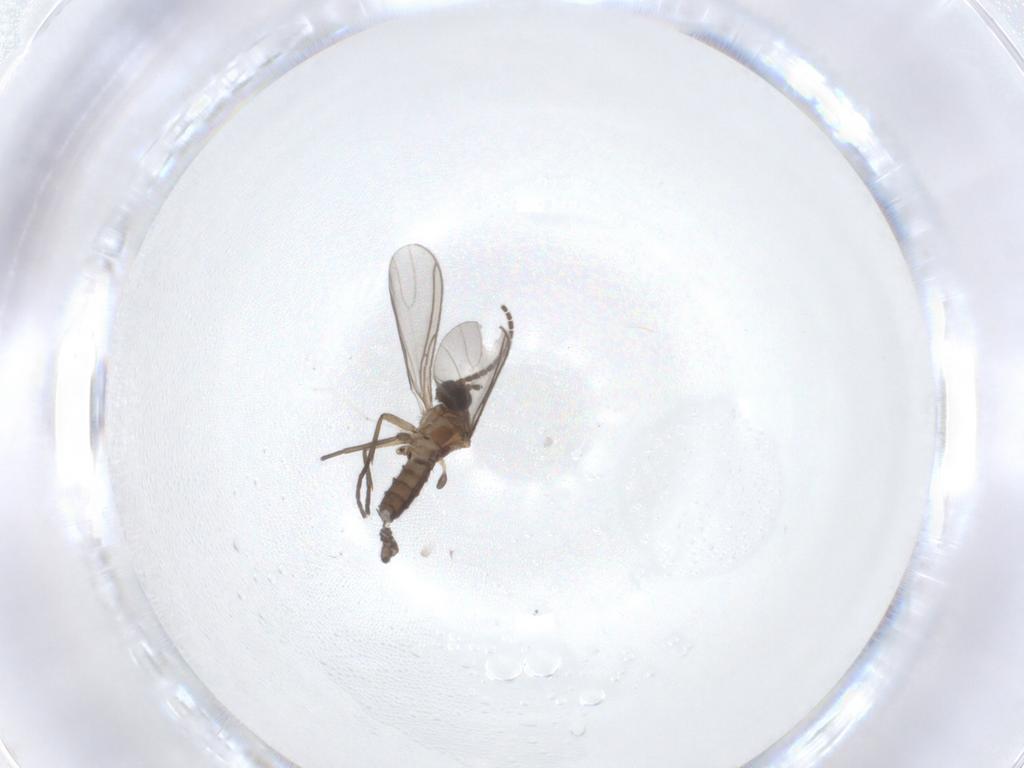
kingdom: Animalia
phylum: Arthropoda
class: Insecta
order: Diptera
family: Sciaridae
